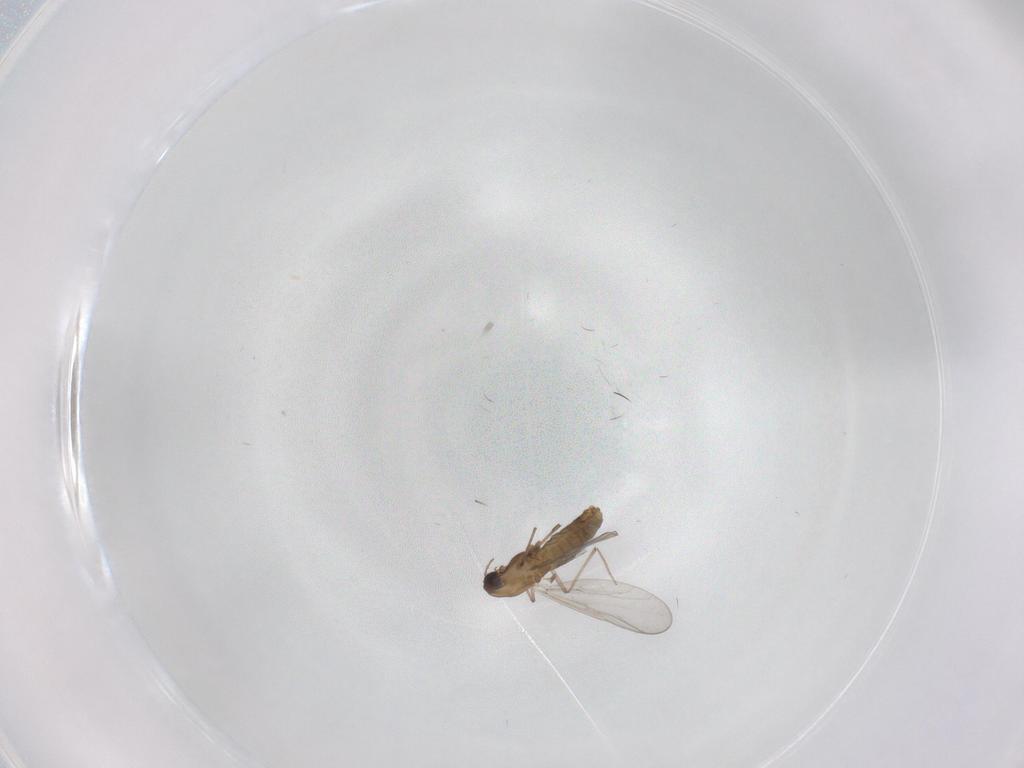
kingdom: Animalia
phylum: Arthropoda
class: Insecta
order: Diptera
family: Chironomidae
